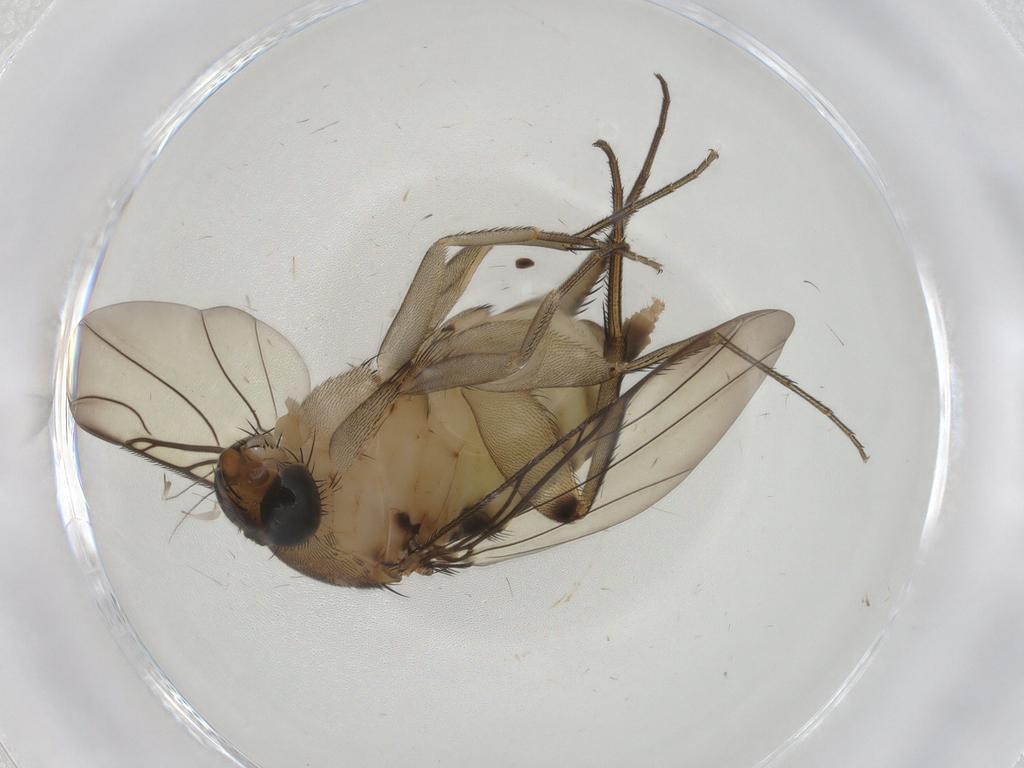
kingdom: Animalia
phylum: Arthropoda
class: Insecta
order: Diptera
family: Phoridae
